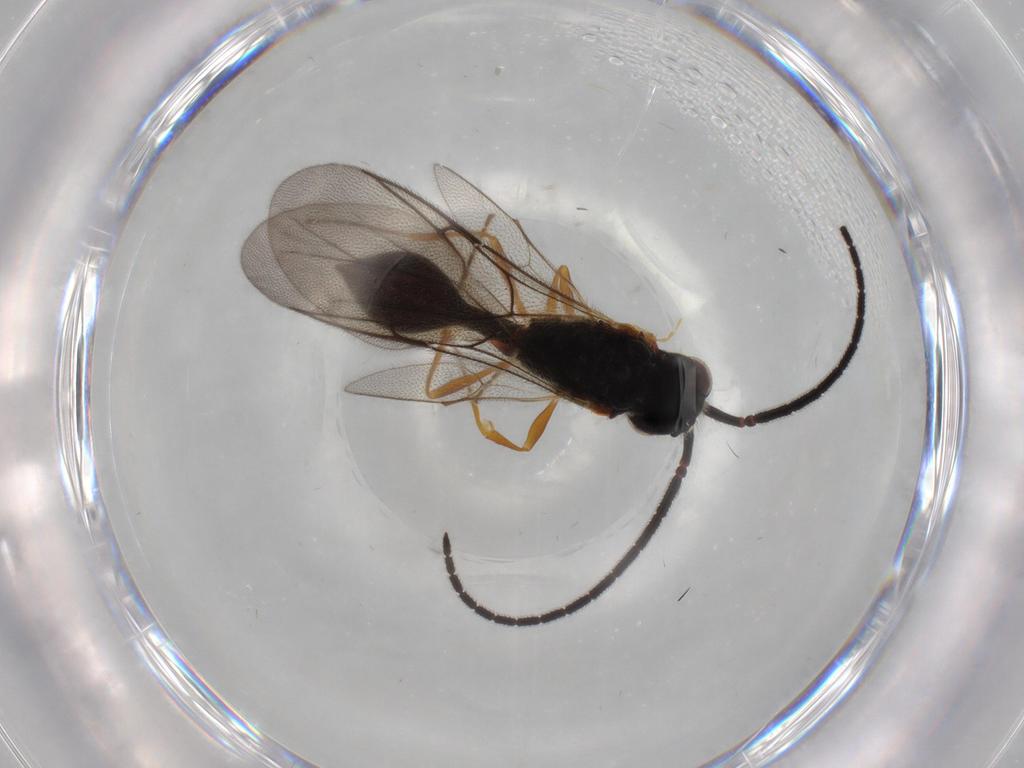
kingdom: Animalia
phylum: Arthropoda
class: Insecta
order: Hymenoptera
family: Diapriidae
